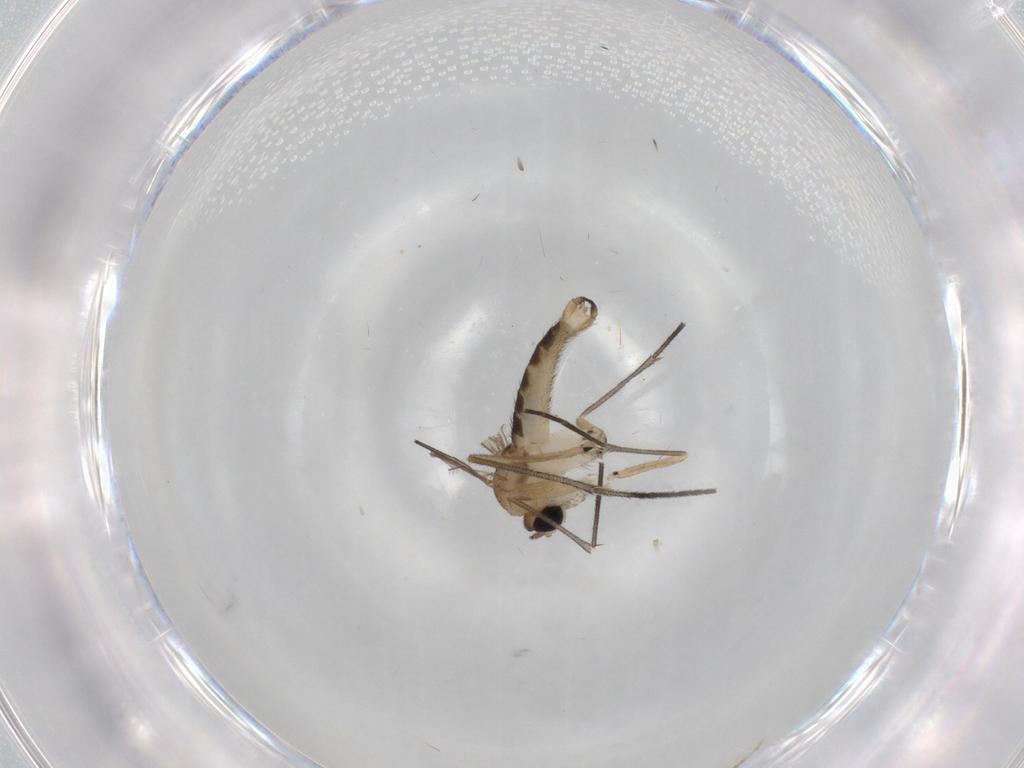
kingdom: Animalia
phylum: Arthropoda
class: Insecta
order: Diptera
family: Sciaridae
